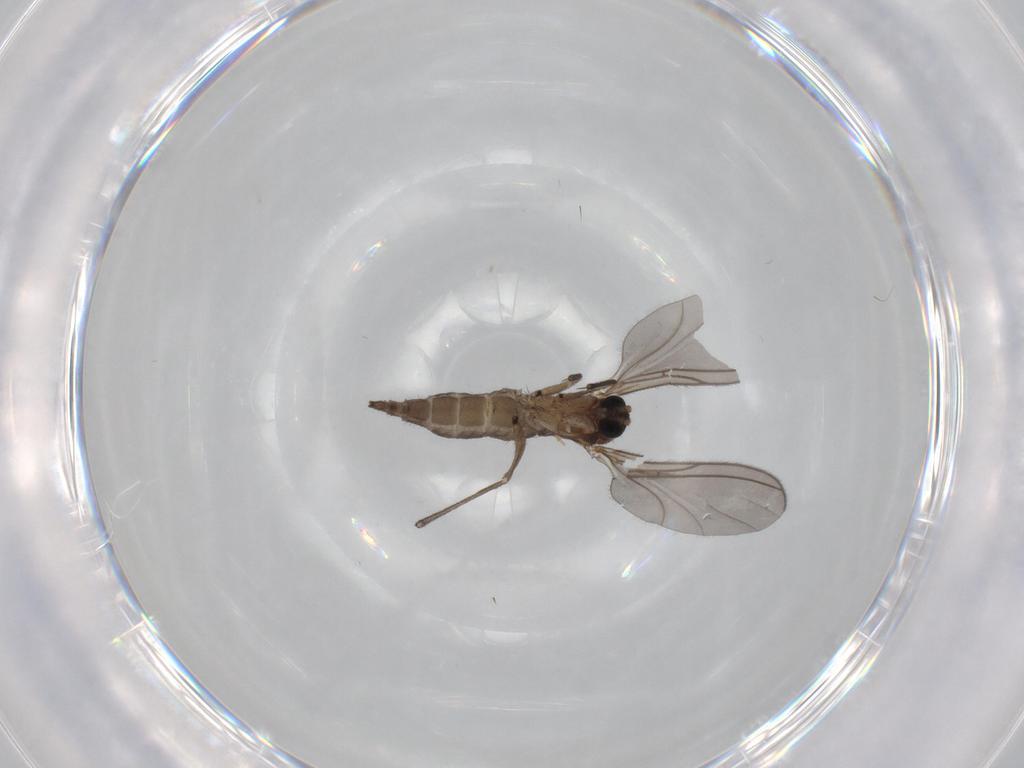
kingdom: Animalia
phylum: Arthropoda
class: Insecta
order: Diptera
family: Sciaridae
